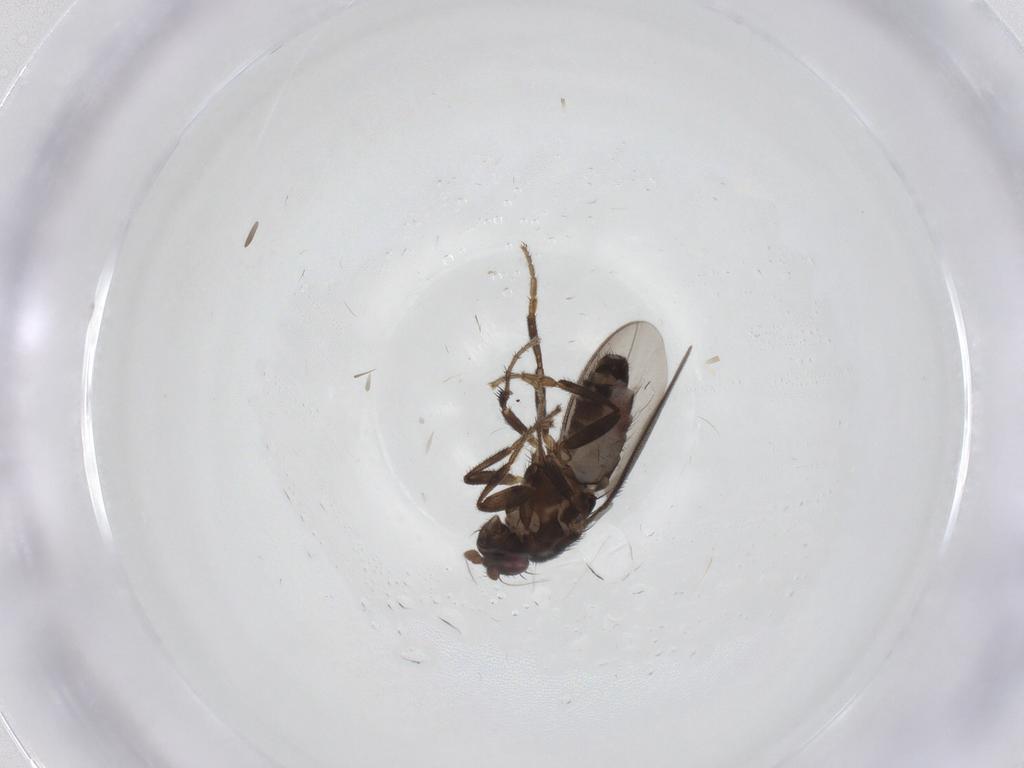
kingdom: Animalia
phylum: Arthropoda
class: Insecta
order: Diptera
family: Sphaeroceridae
